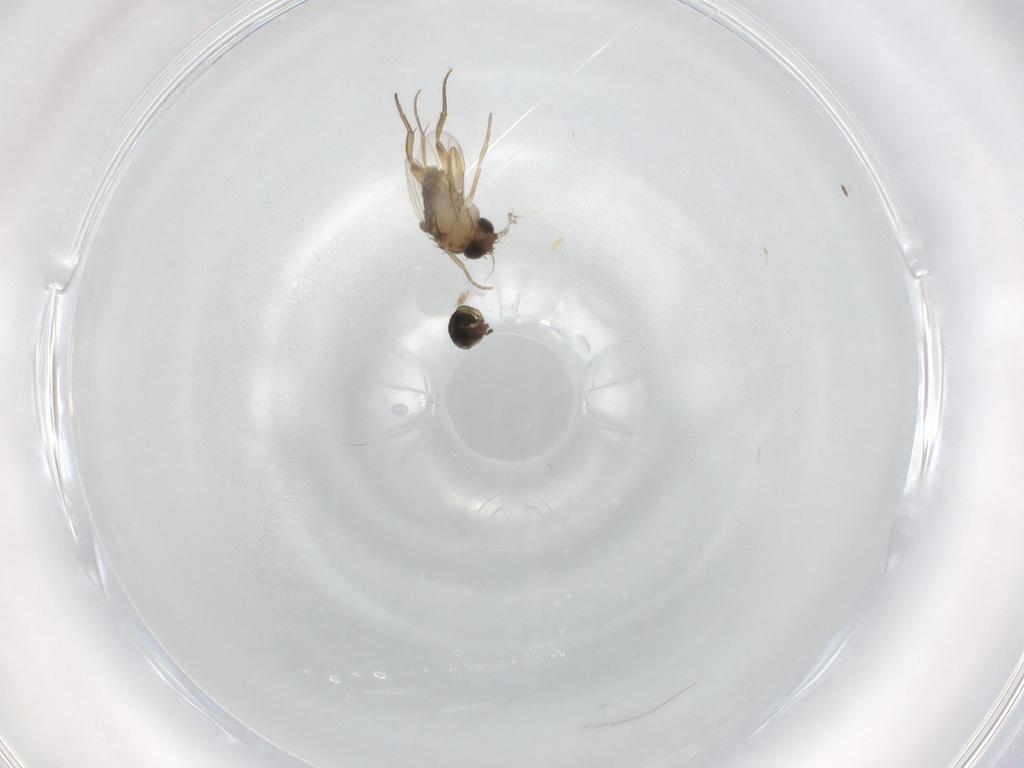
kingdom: Animalia
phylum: Arthropoda
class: Insecta
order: Diptera
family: Phoridae
